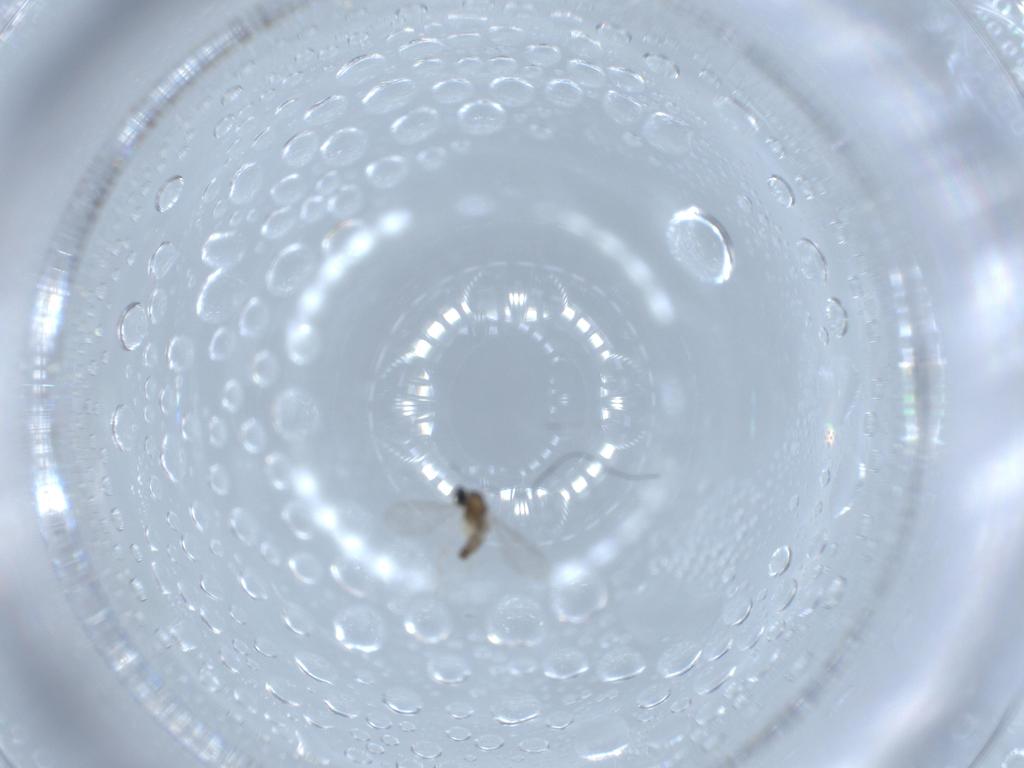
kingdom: Animalia
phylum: Arthropoda
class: Insecta
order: Diptera
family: Cecidomyiidae
